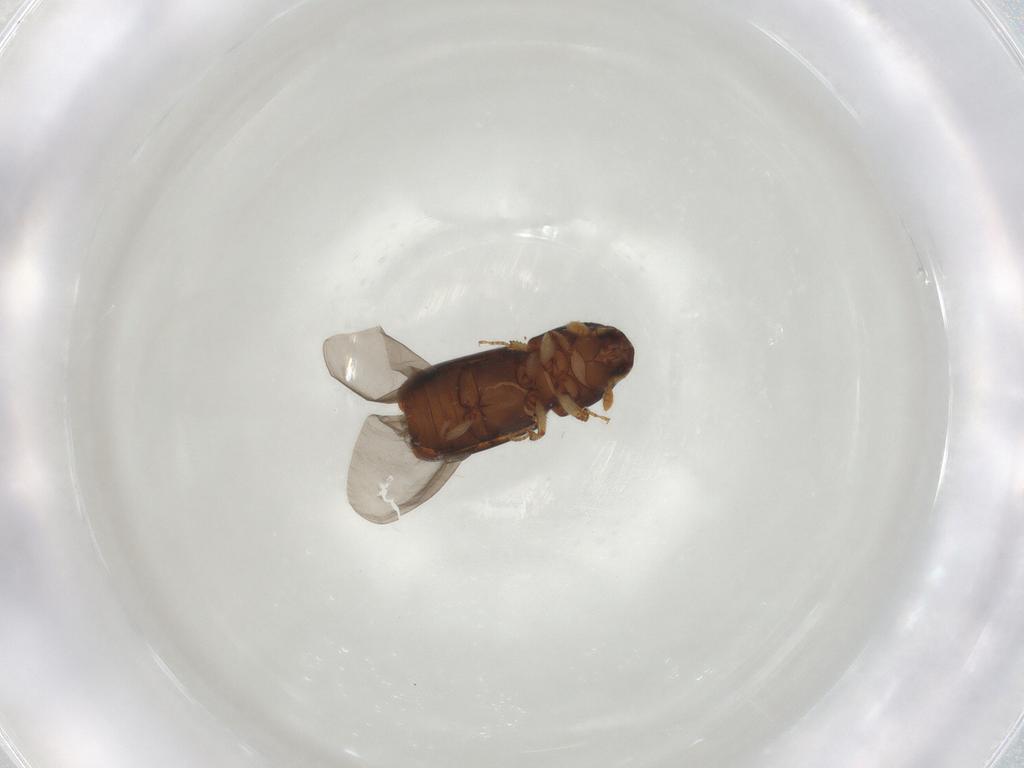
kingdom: Animalia
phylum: Arthropoda
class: Insecta
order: Coleoptera
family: Curculionidae
